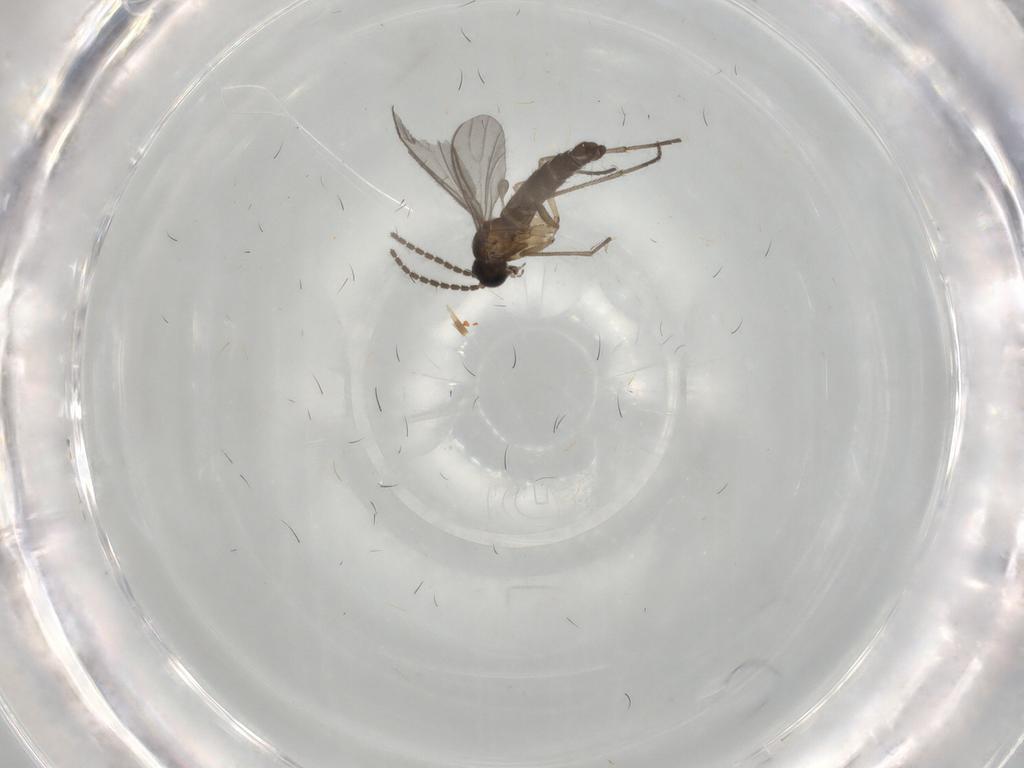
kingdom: Animalia
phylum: Arthropoda
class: Insecta
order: Diptera
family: Sciaridae
